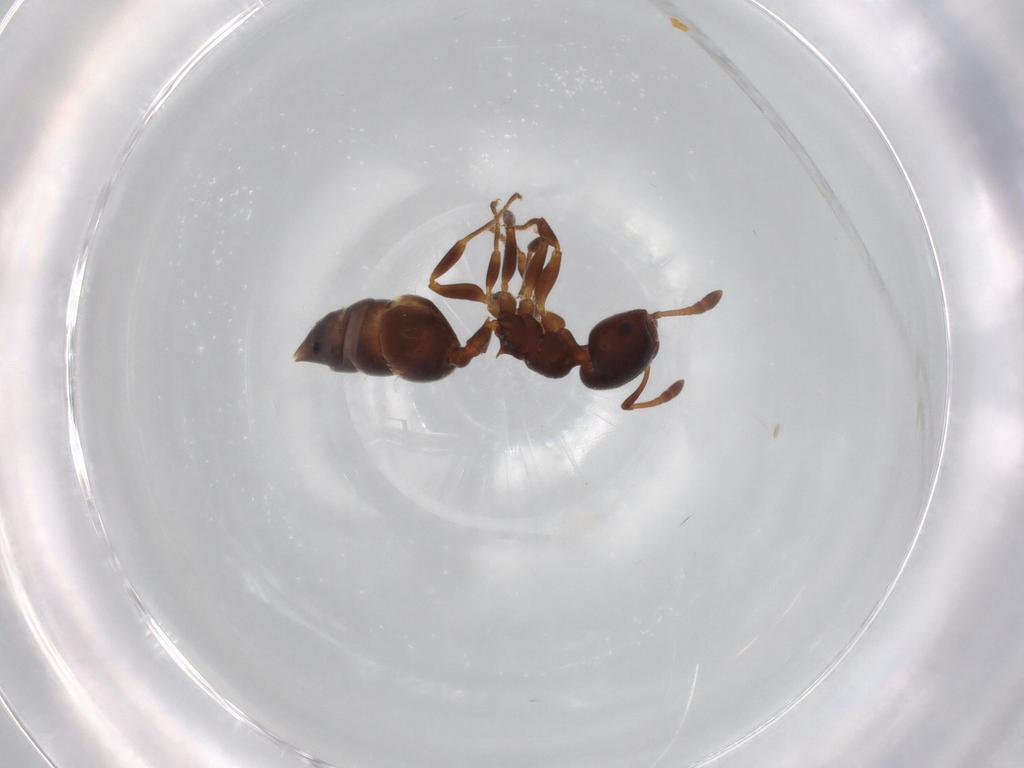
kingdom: Animalia
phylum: Arthropoda
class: Insecta
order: Hymenoptera
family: Formicidae
